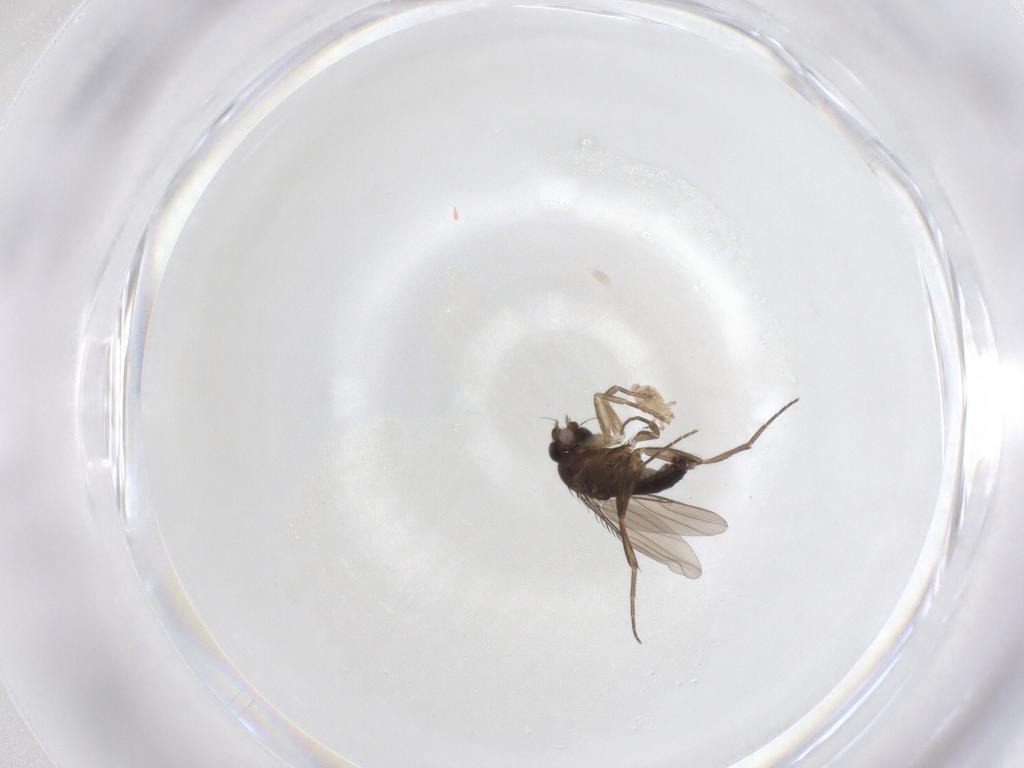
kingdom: Animalia
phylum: Arthropoda
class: Insecta
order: Diptera
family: Phoridae
